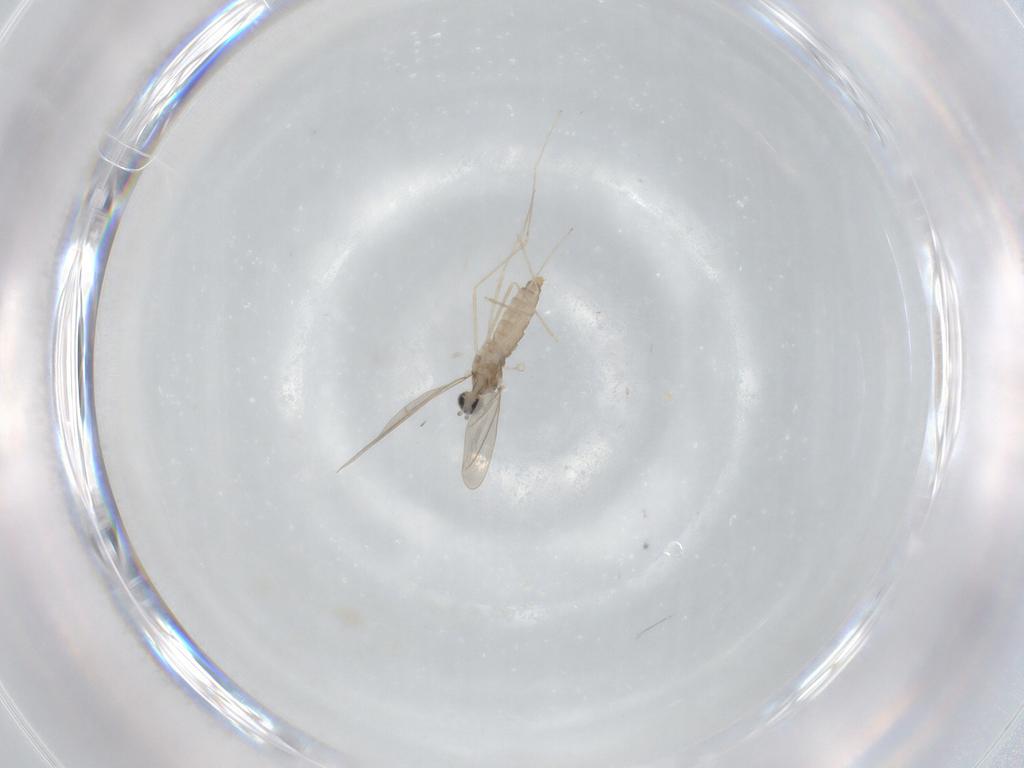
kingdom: Animalia
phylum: Arthropoda
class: Insecta
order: Diptera
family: Cecidomyiidae
